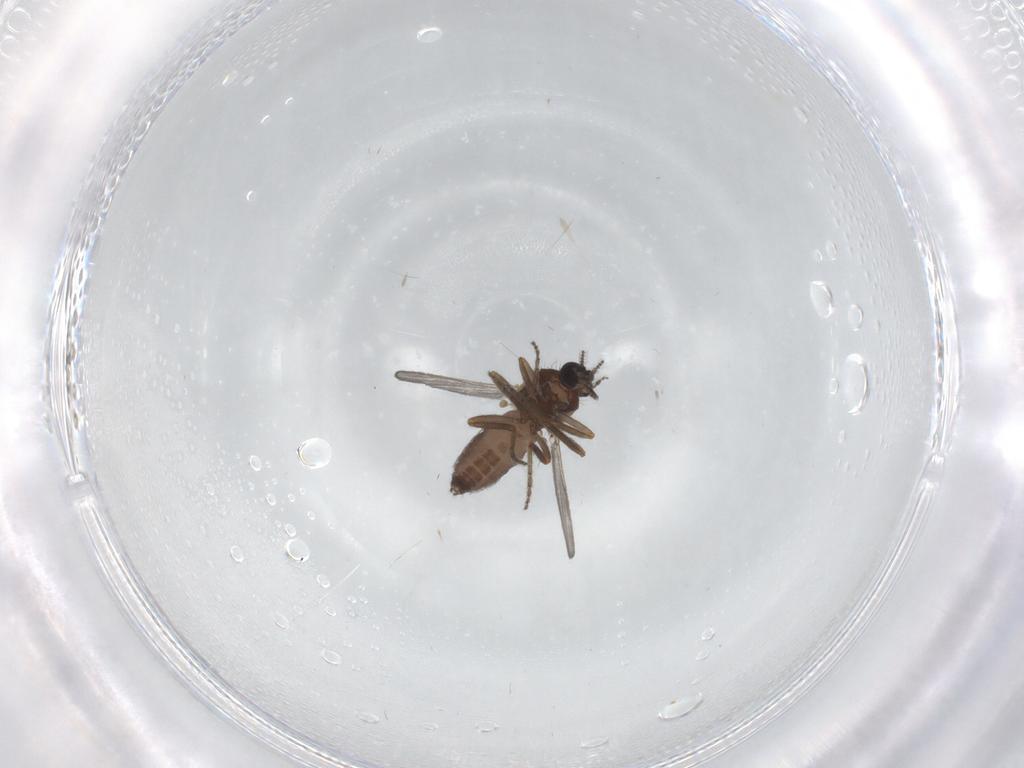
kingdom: Animalia
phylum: Arthropoda
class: Insecta
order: Diptera
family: Ceratopogonidae
